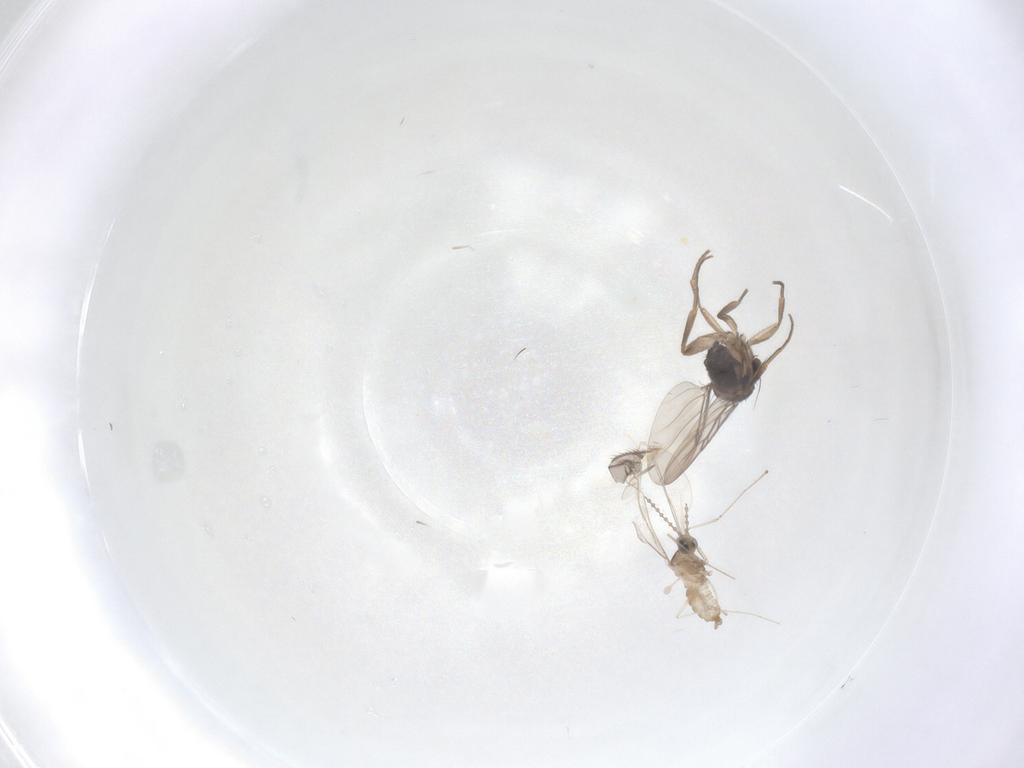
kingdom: Animalia
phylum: Arthropoda
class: Insecta
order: Diptera
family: Cecidomyiidae
